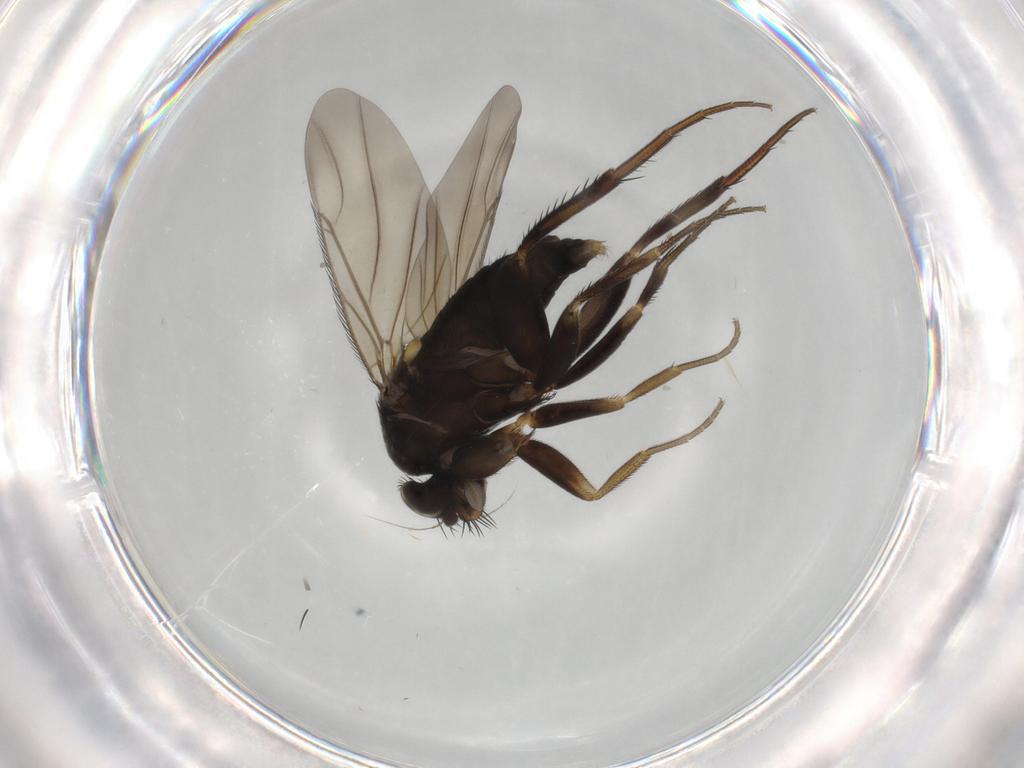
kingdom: Animalia
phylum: Arthropoda
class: Insecta
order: Diptera
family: Phoridae
